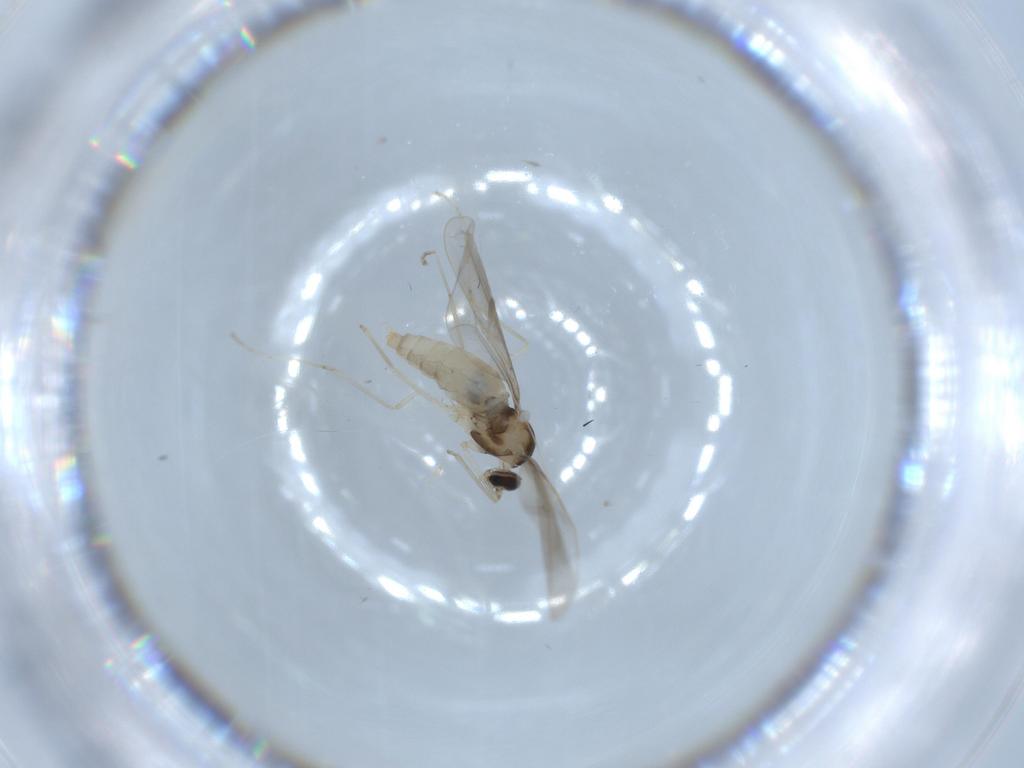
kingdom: Animalia
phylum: Arthropoda
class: Insecta
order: Diptera
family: Cecidomyiidae
